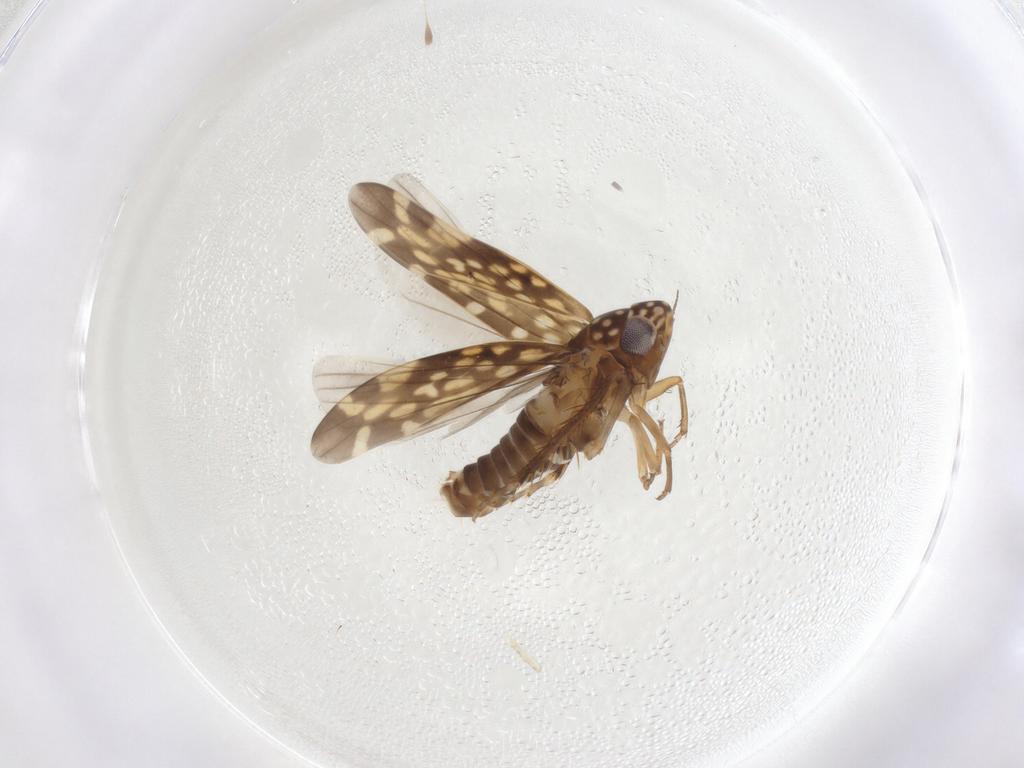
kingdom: Animalia
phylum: Arthropoda
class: Insecta
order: Hemiptera
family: Cicadellidae
